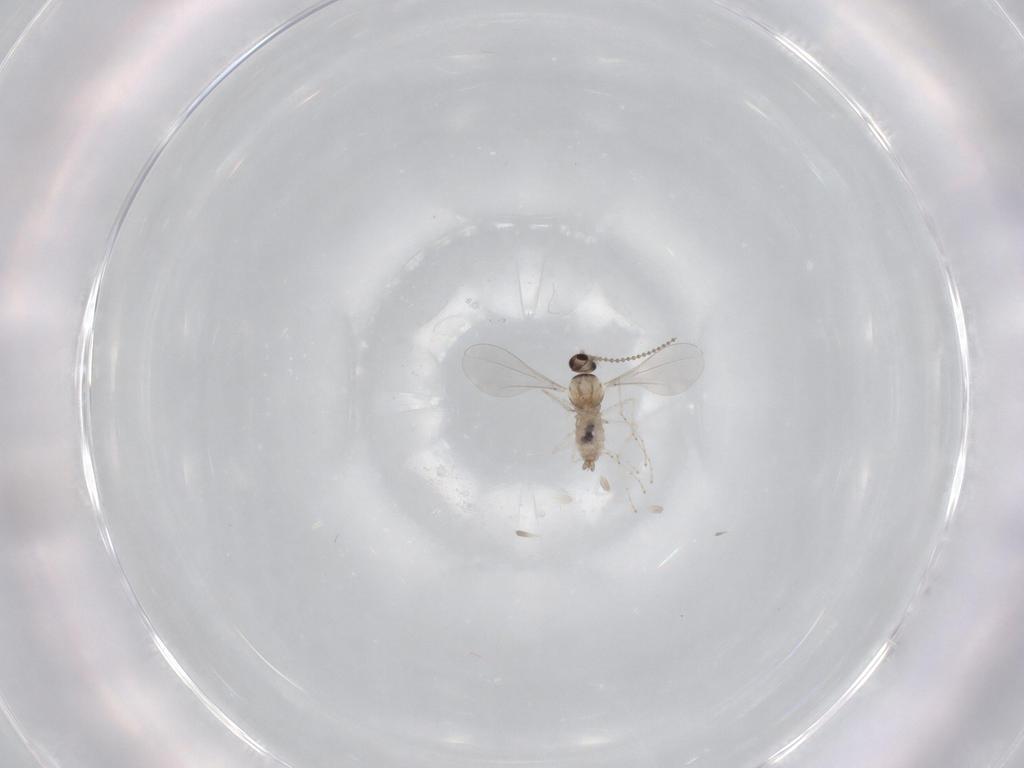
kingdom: Animalia
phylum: Arthropoda
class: Insecta
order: Diptera
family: Cecidomyiidae
